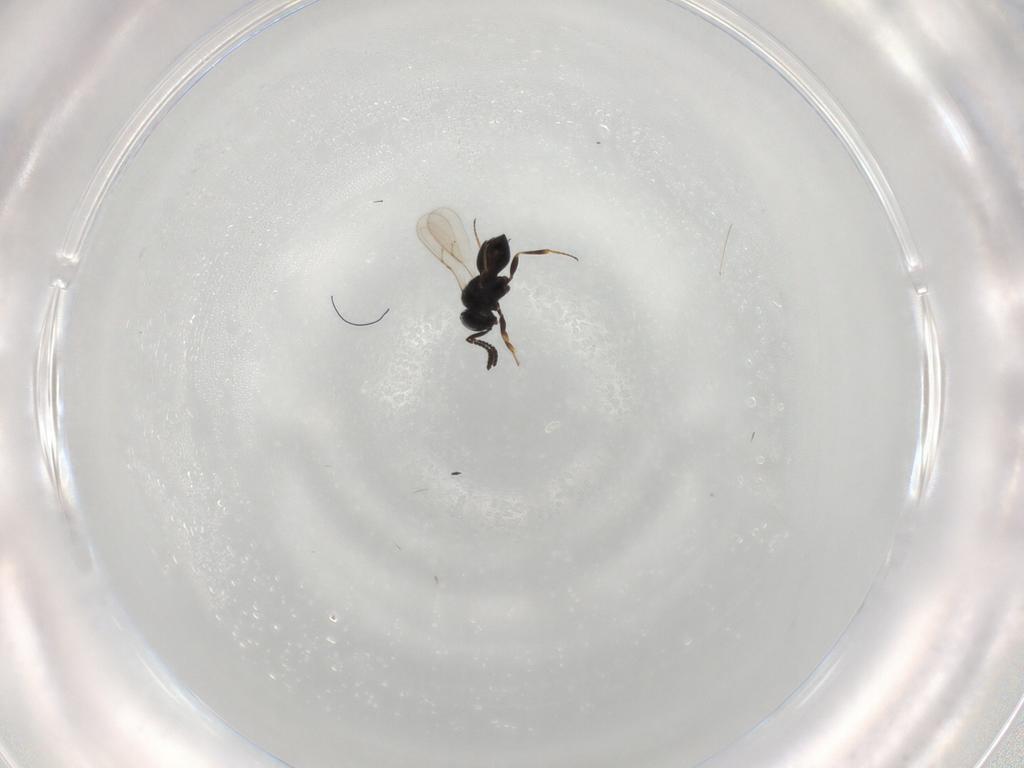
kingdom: Animalia
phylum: Arthropoda
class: Insecta
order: Hymenoptera
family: Scelionidae
